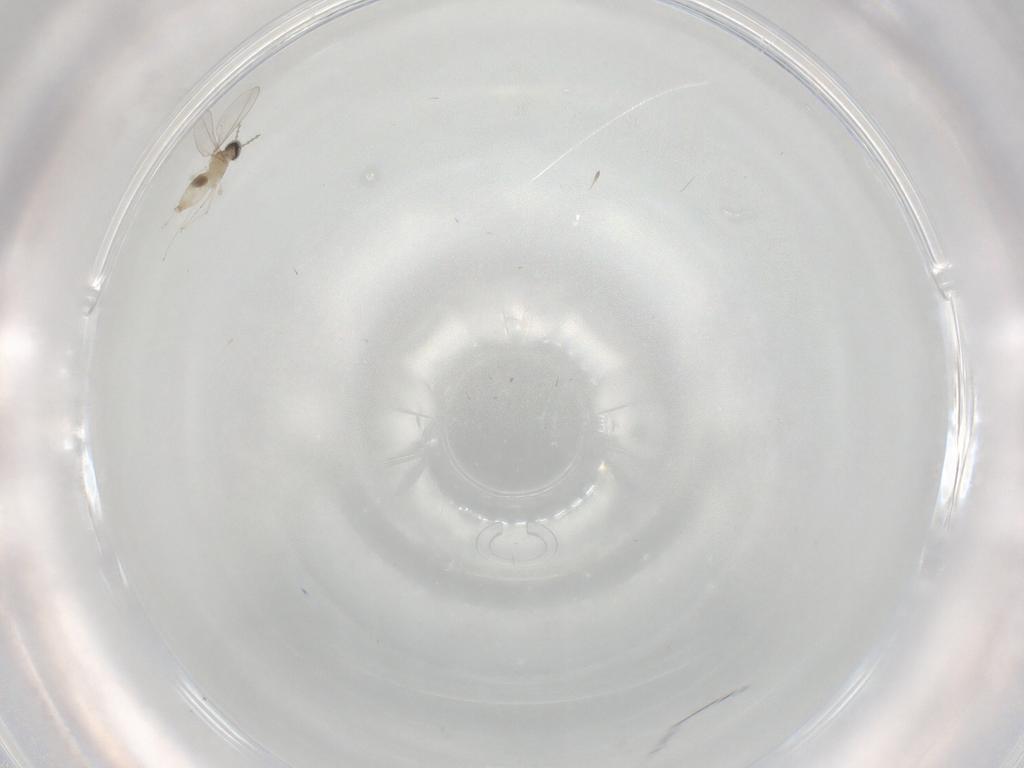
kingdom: Animalia
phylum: Arthropoda
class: Insecta
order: Diptera
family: Cecidomyiidae
